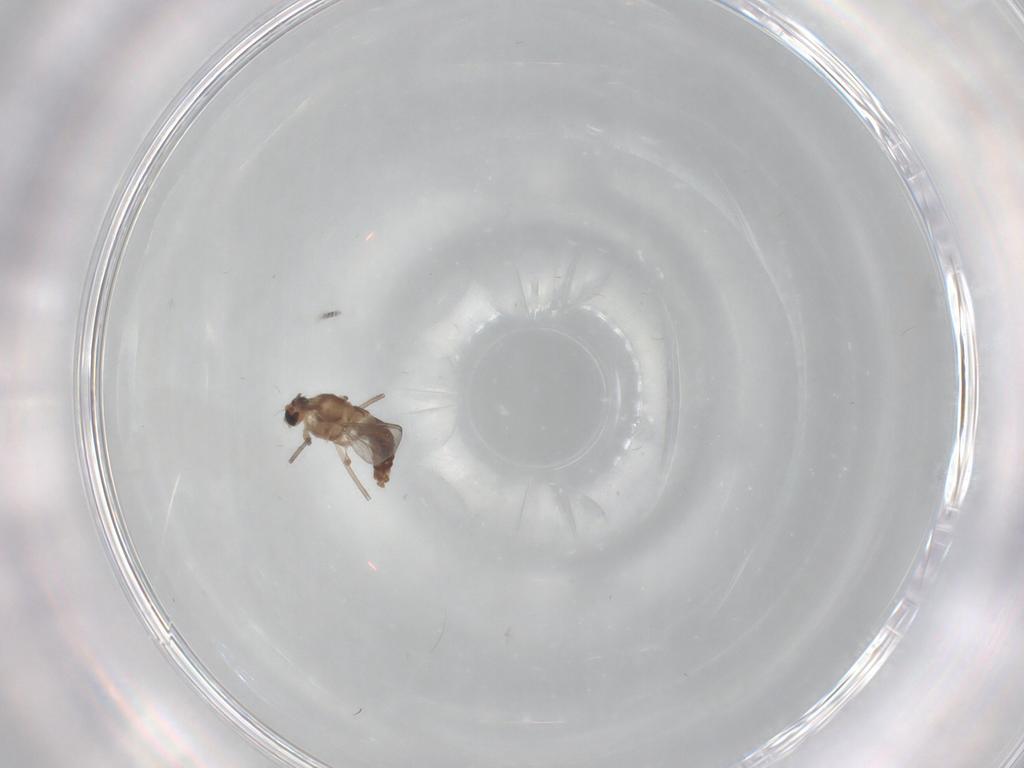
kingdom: Animalia
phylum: Arthropoda
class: Insecta
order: Diptera
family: Chironomidae
